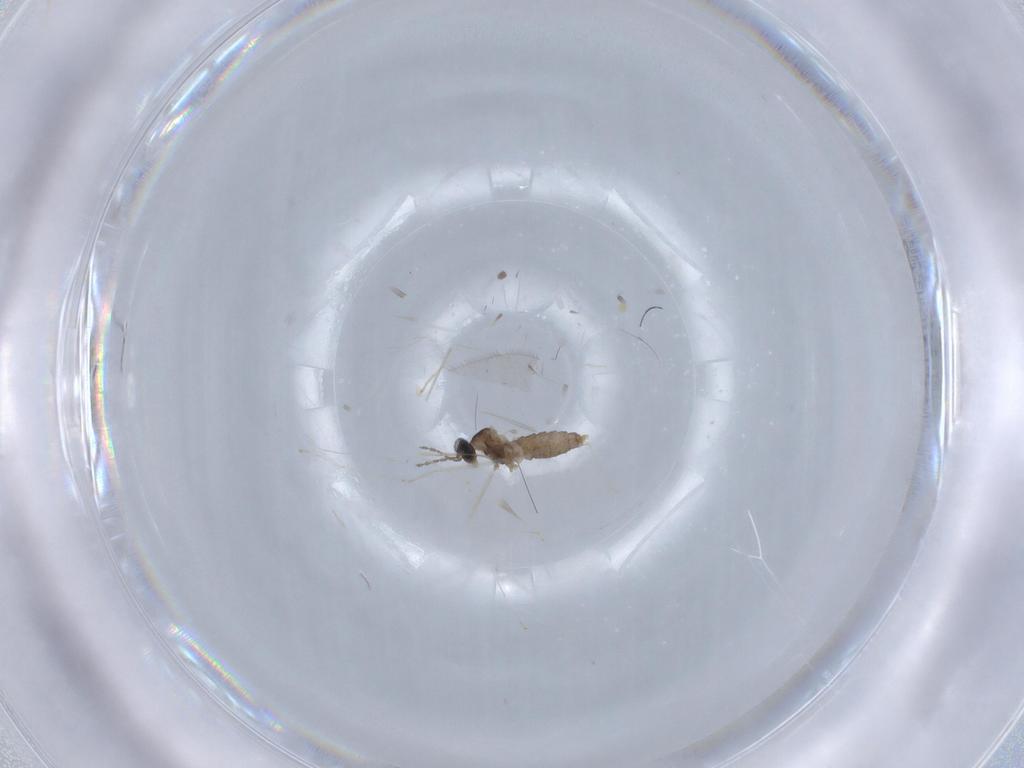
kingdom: Animalia
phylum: Arthropoda
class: Insecta
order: Diptera
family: Cecidomyiidae
